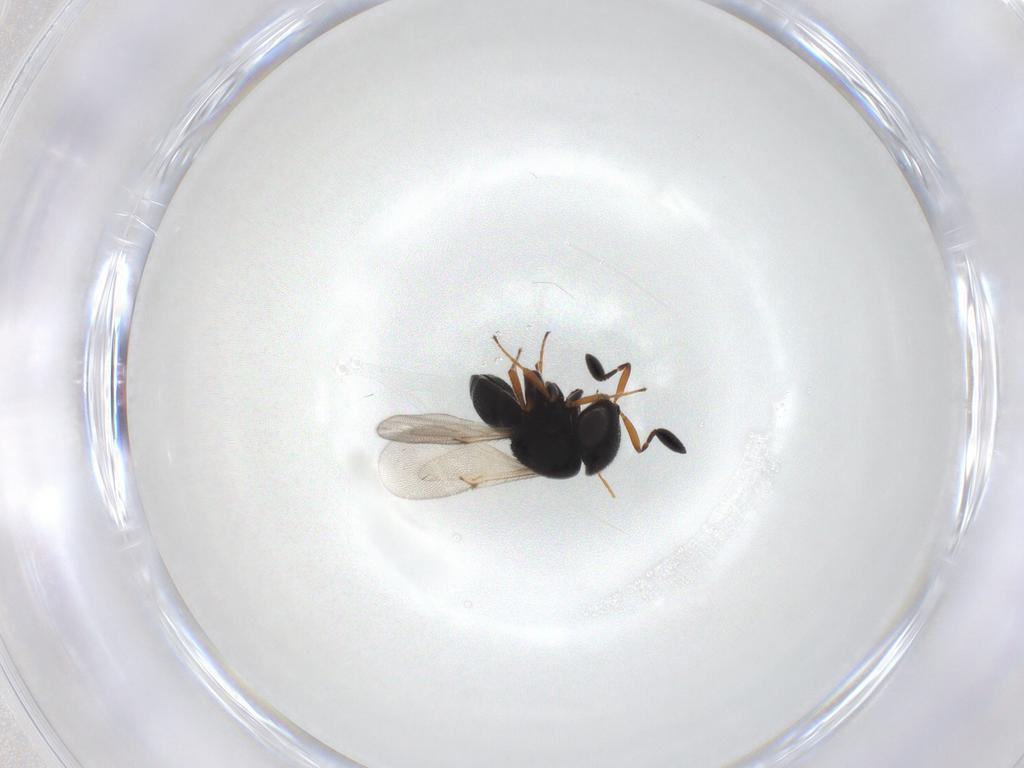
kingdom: Animalia
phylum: Arthropoda
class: Insecta
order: Hymenoptera
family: Scelionidae
